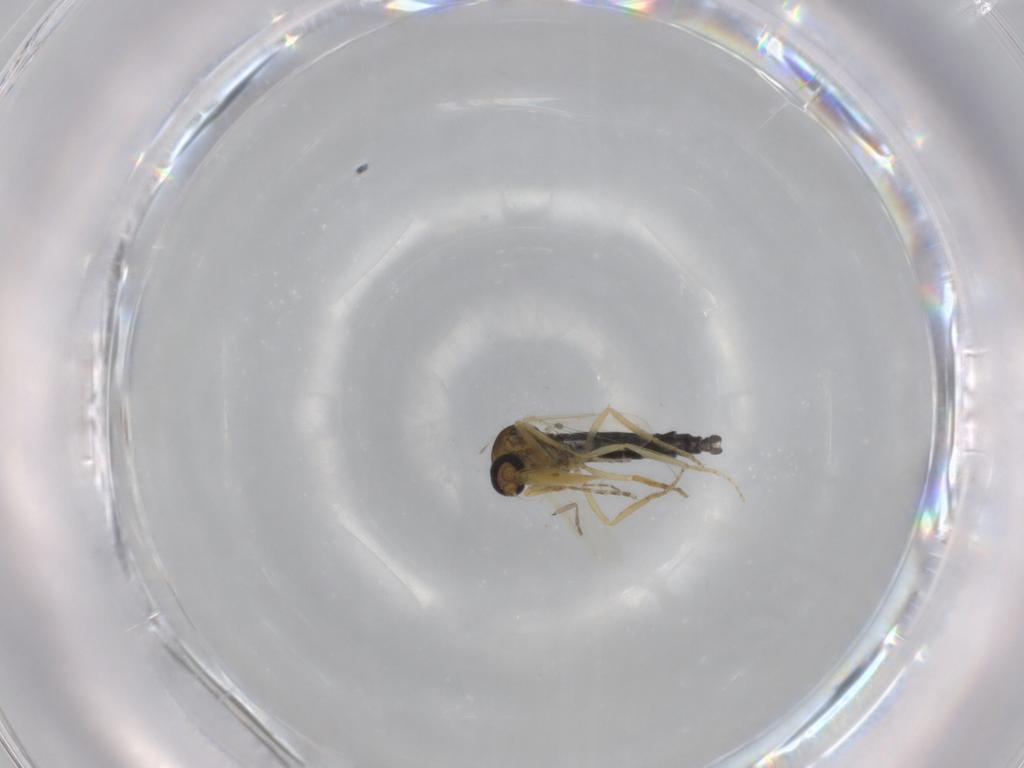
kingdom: Animalia
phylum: Arthropoda
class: Insecta
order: Diptera
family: Ceratopogonidae
